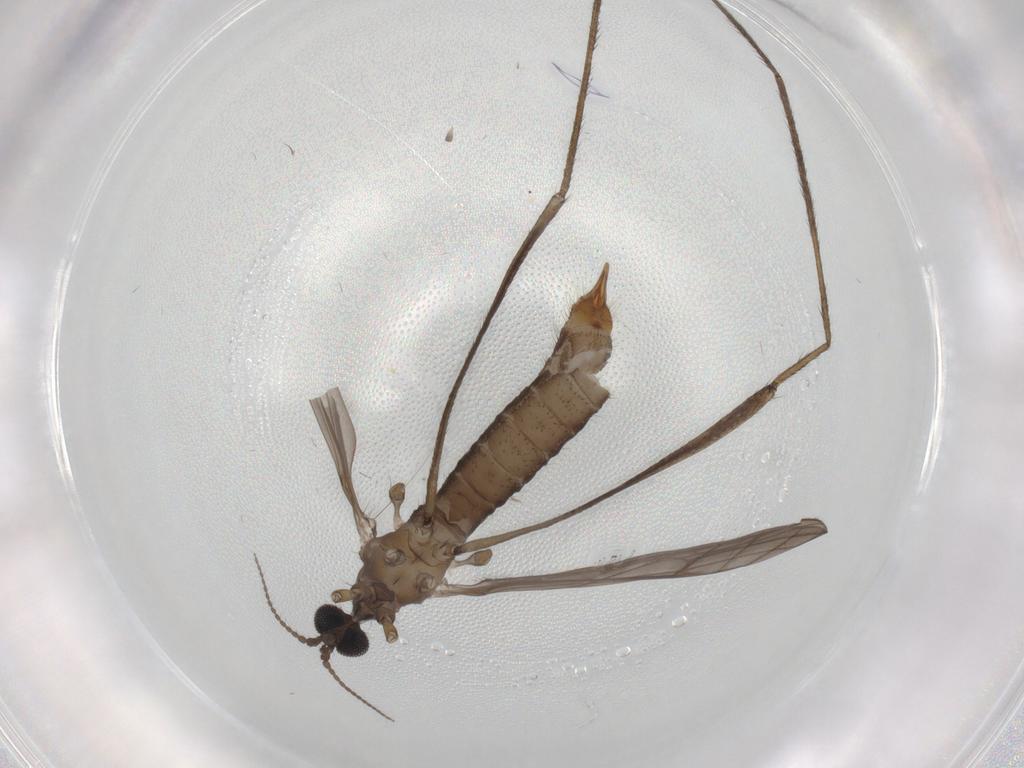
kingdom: Animalia
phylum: Arthropoda
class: Insecta
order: Diptera
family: Limoniidae
